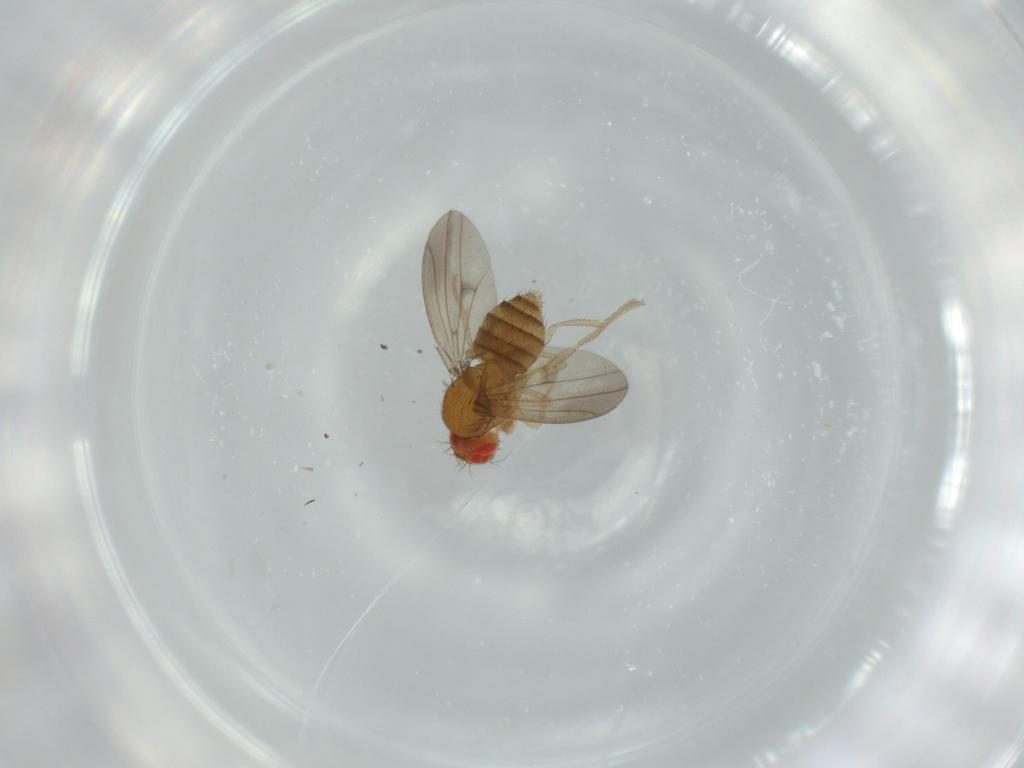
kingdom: Animalia
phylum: Arthropoda
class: Insecta
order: Diptera
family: Drosophilidae
